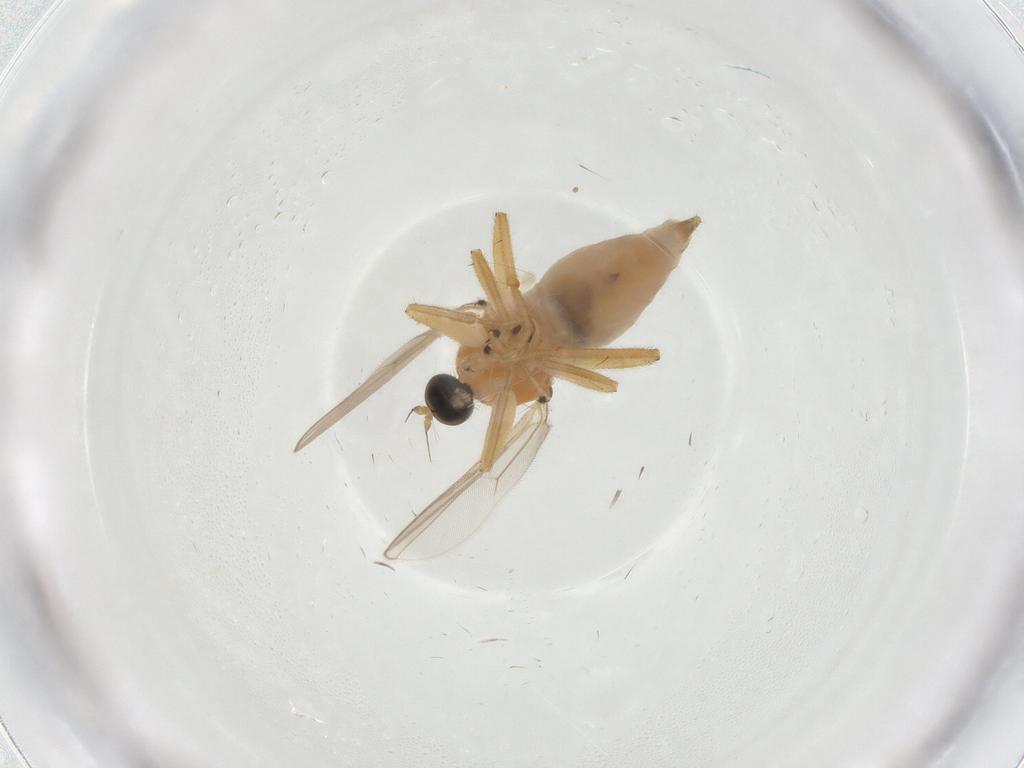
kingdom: Animalia
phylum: Arthropoda
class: Insecta
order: Diptera
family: Hybotidae
